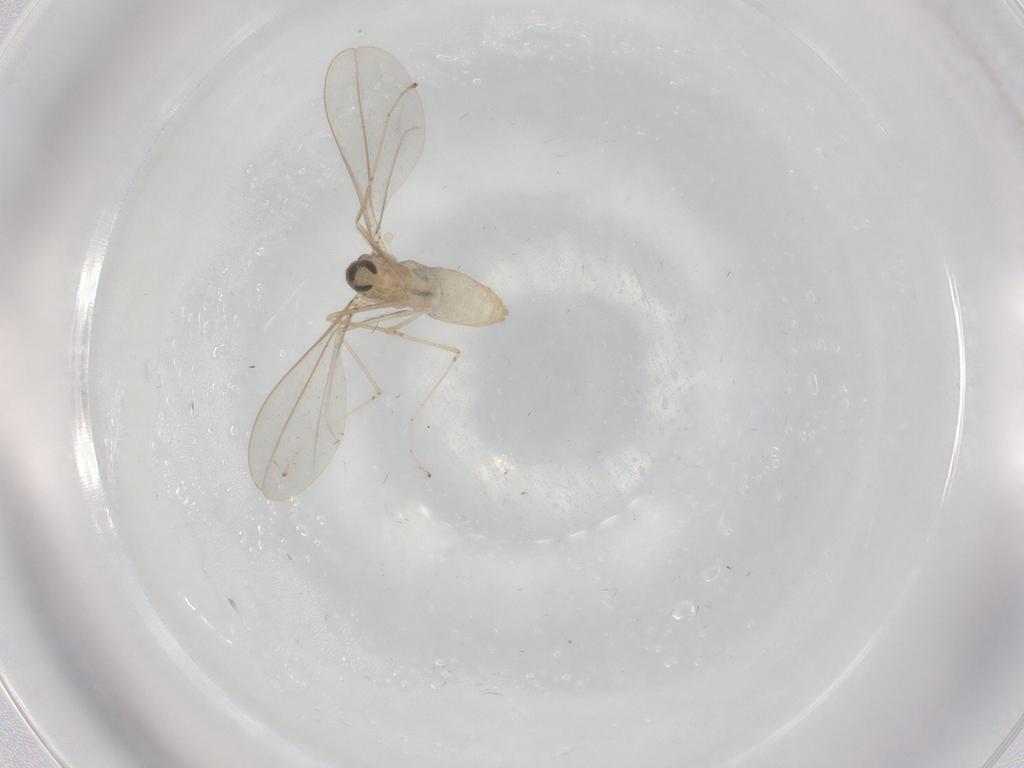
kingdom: Animalia
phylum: Arthropoda
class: Insecta
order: Diptera
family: Cecidomyiidae
